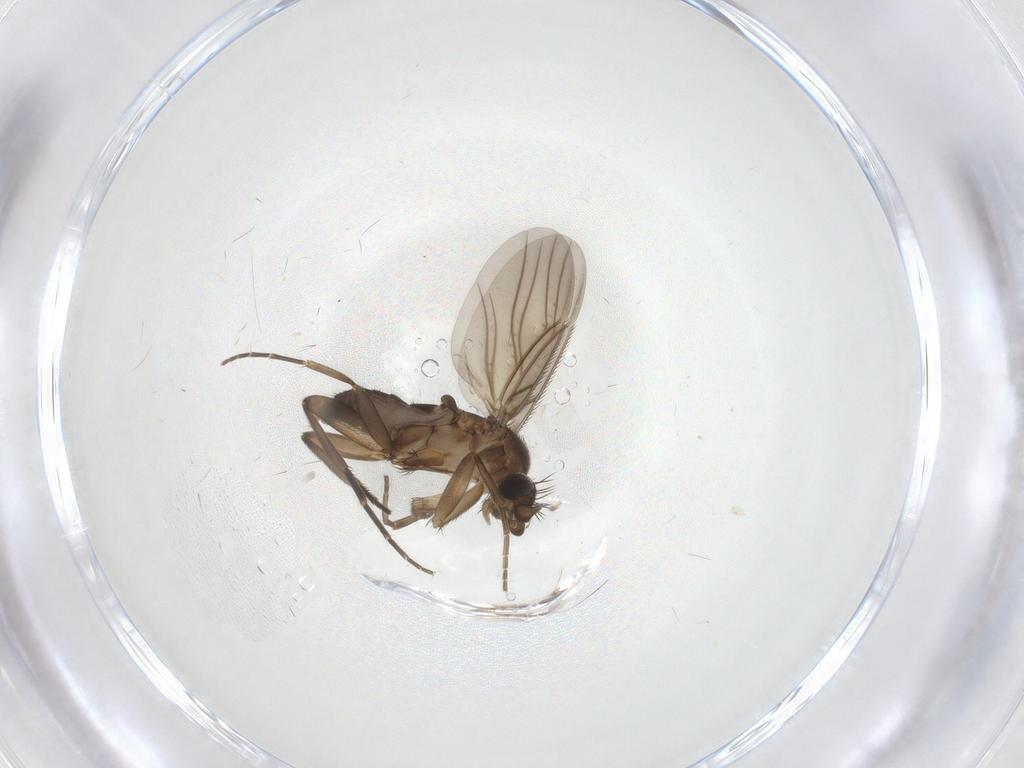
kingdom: Animalia
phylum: Arthropoda
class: Insecta
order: Diptera
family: Phoridae
